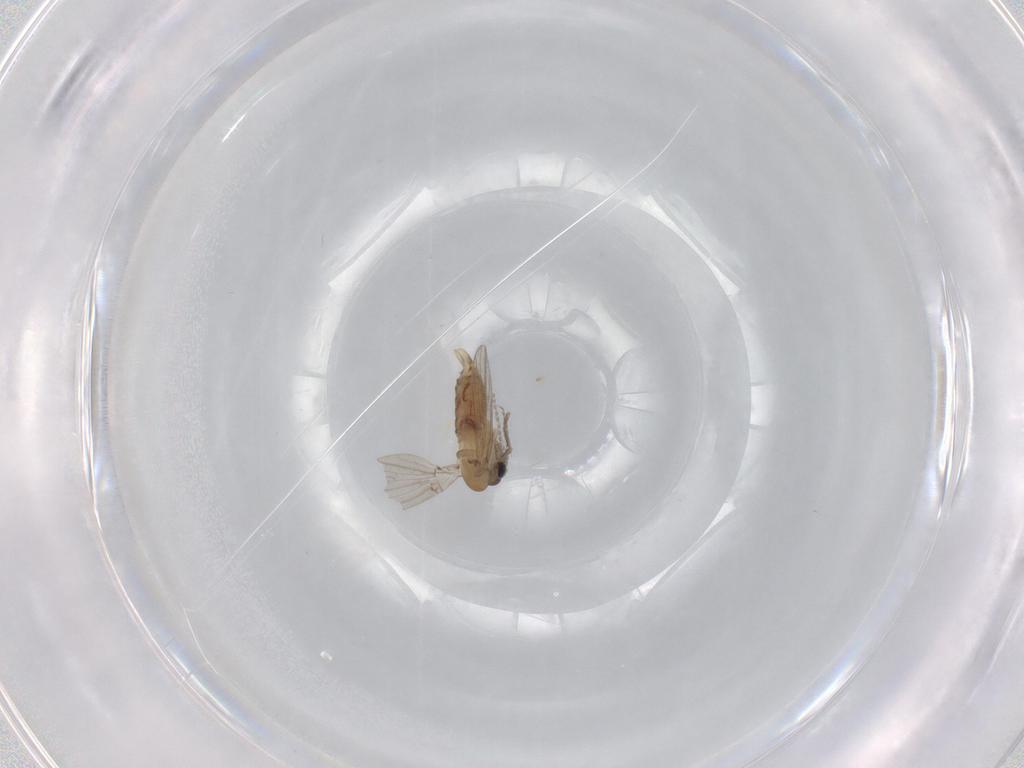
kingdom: Animalia
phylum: Arthropoda
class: Insecta
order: Diptera
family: Psychodidae
